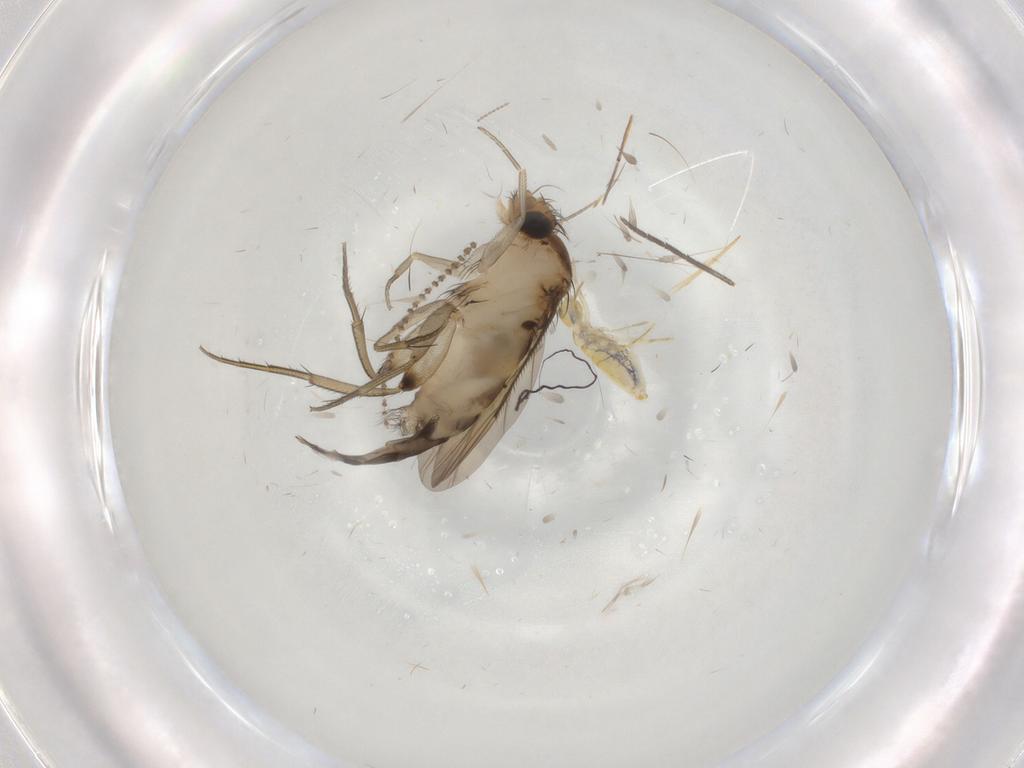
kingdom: Animalia
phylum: Arthropoda
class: Insecta
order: Diptera
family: Phoridae
